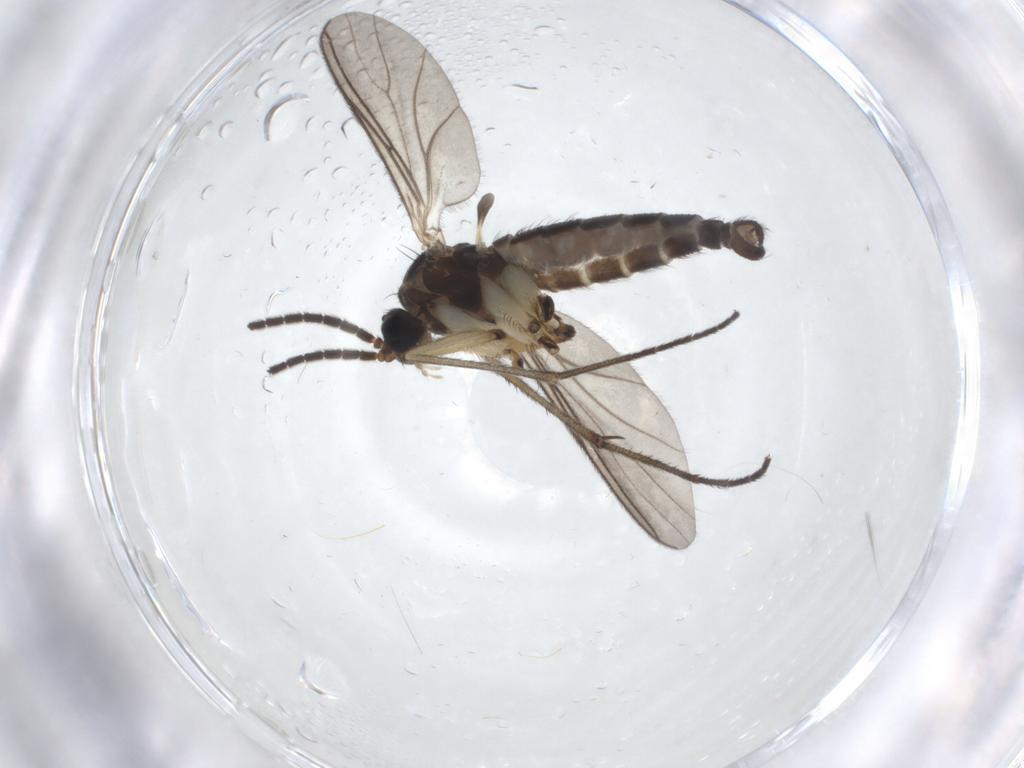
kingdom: Animalia
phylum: Arthropoda
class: Insecta
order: Diptera
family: Sciaridae
